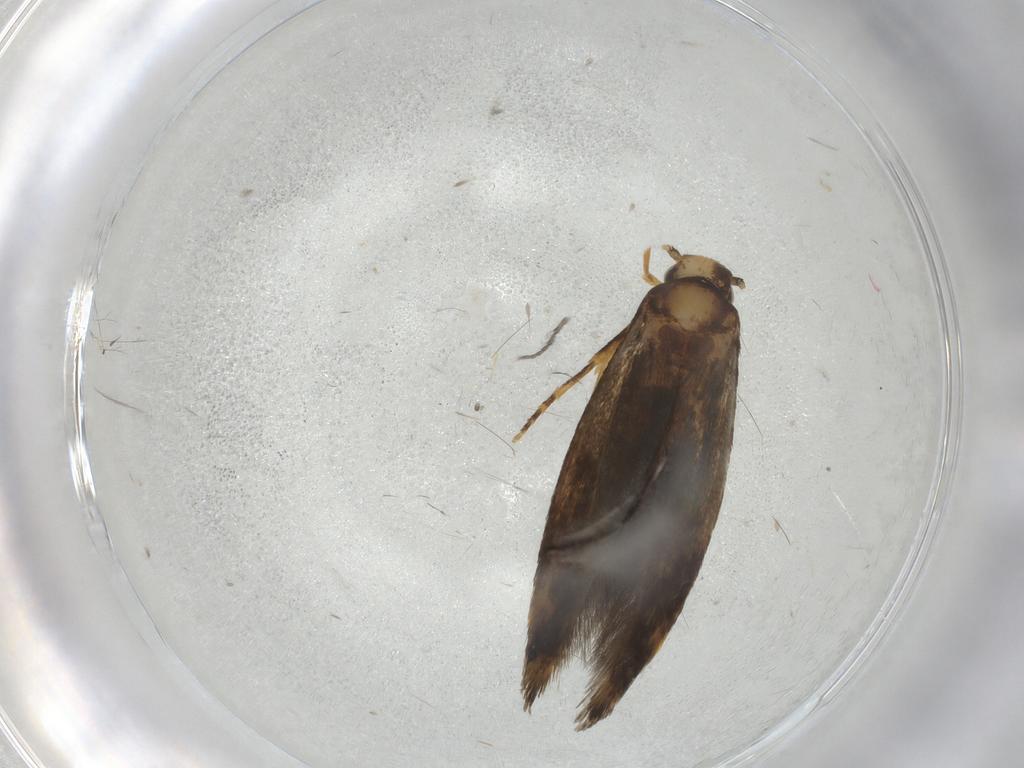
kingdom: Animalia
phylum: Arthropoda
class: Insecta
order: Lepidoptera
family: Tineidae
